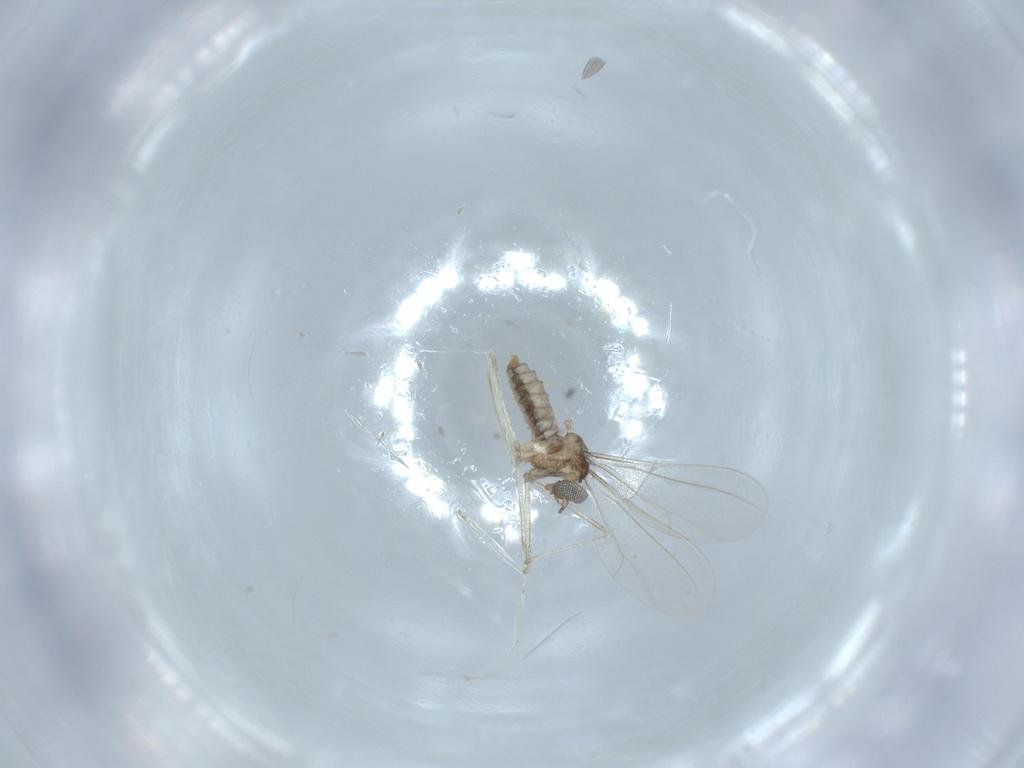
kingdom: Animalia
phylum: Arthropoda
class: Insecta
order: Diptera
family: Cecidomyiidae
